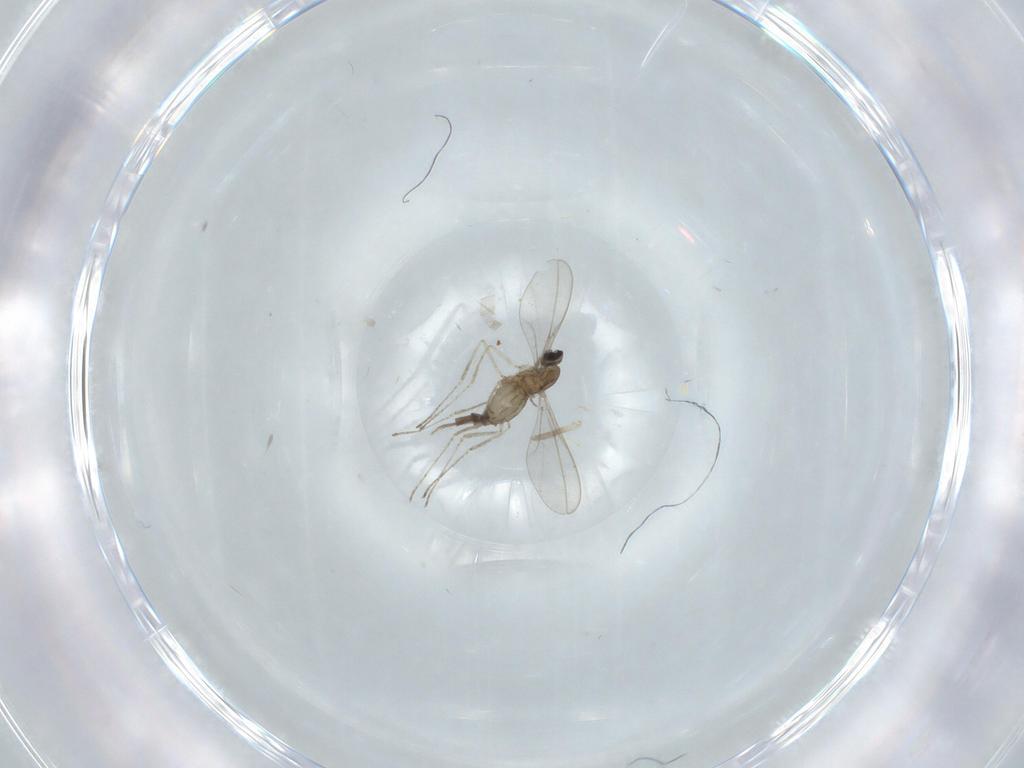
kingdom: Animalia
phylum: Arthropoda
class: Insecta
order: Diptera
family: Cecidomyiidae
